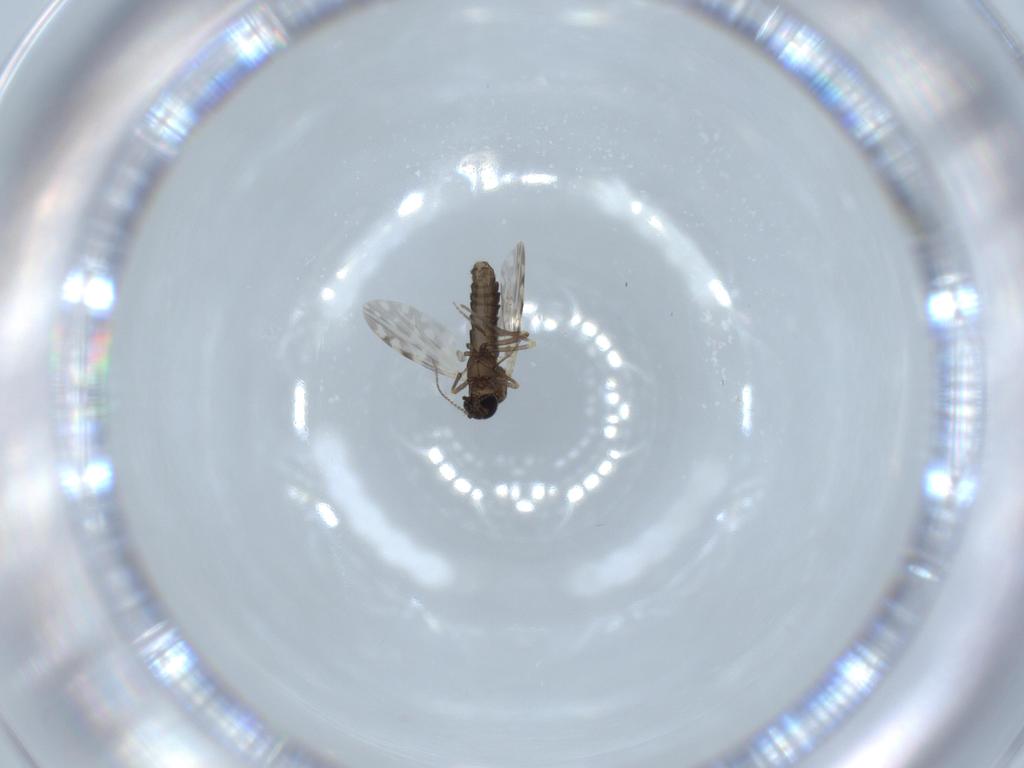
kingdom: Animalia
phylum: Arthropoda
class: Insecta
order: Diptera
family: Ceratopogonidae
